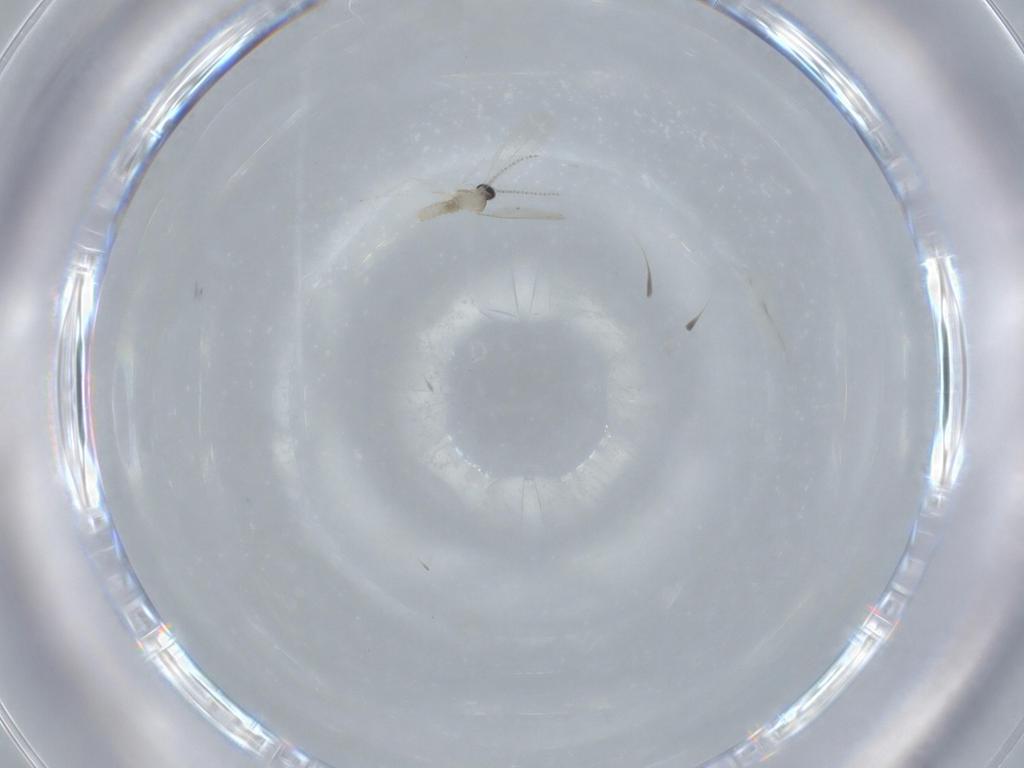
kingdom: Animalia
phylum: Arthropoda
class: Insecta
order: Diptera
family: Cecidomyiidae
